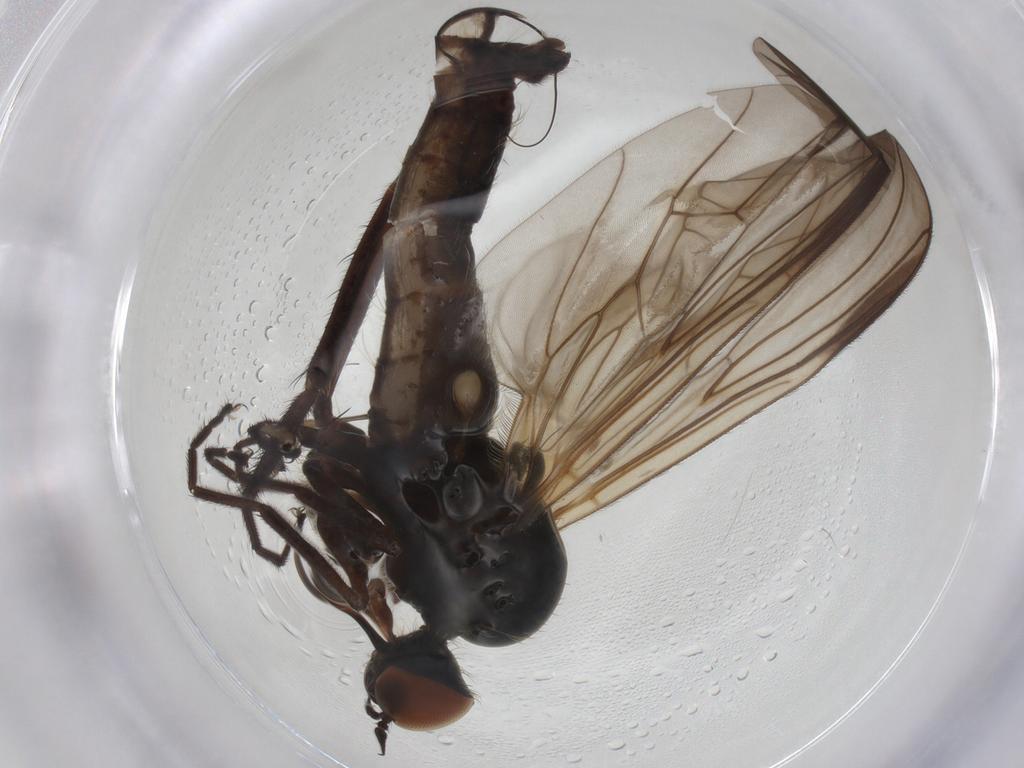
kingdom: Animalia
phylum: Arthropoda
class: Insecta
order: Diptera
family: Empididae
